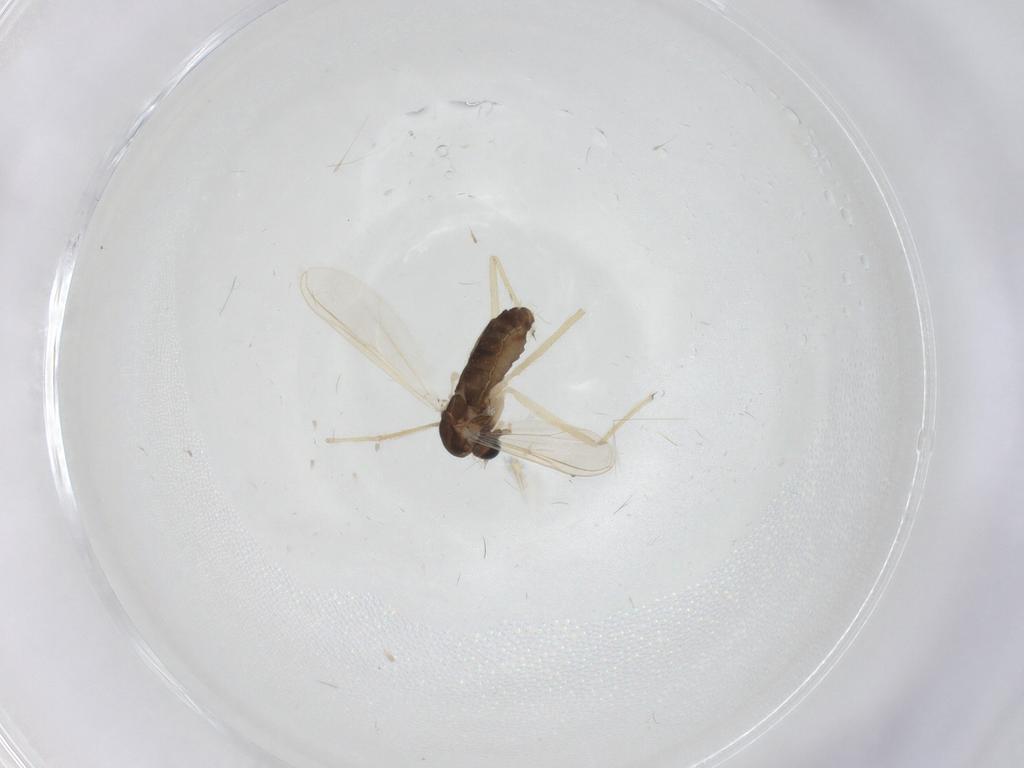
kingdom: Animalia
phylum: Arthropoda
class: Insecta
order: Diptera
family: Chironomidae
